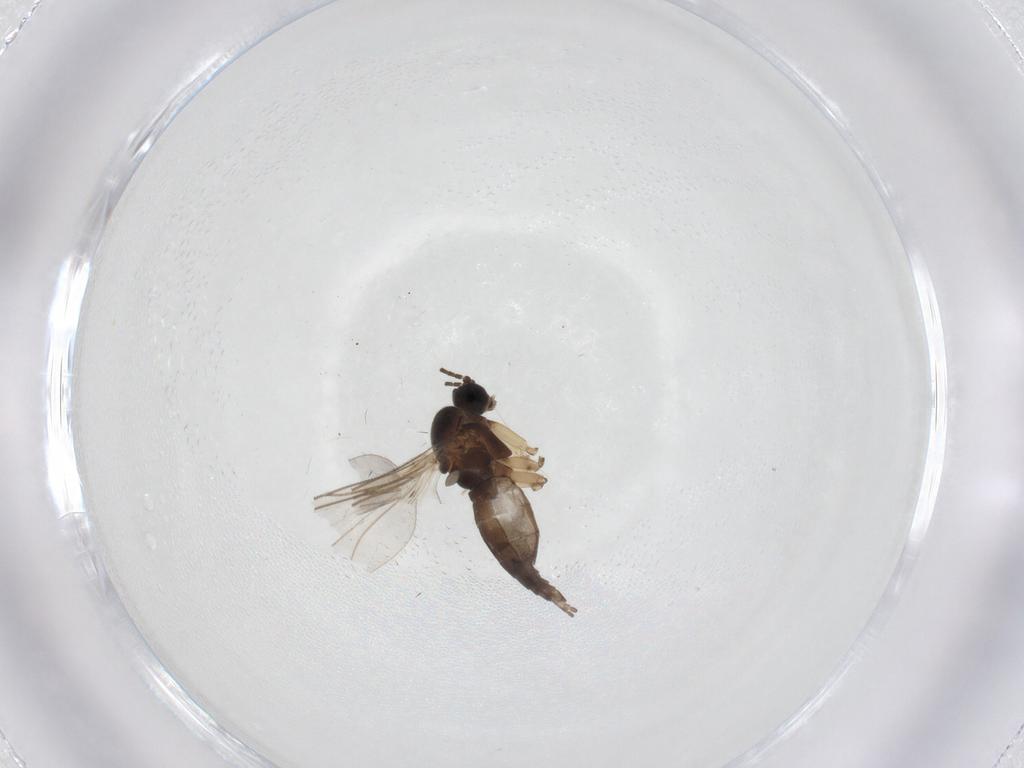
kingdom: Animalia
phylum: Arthropoda
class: Insecta
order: Diptera
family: Sciaridae
